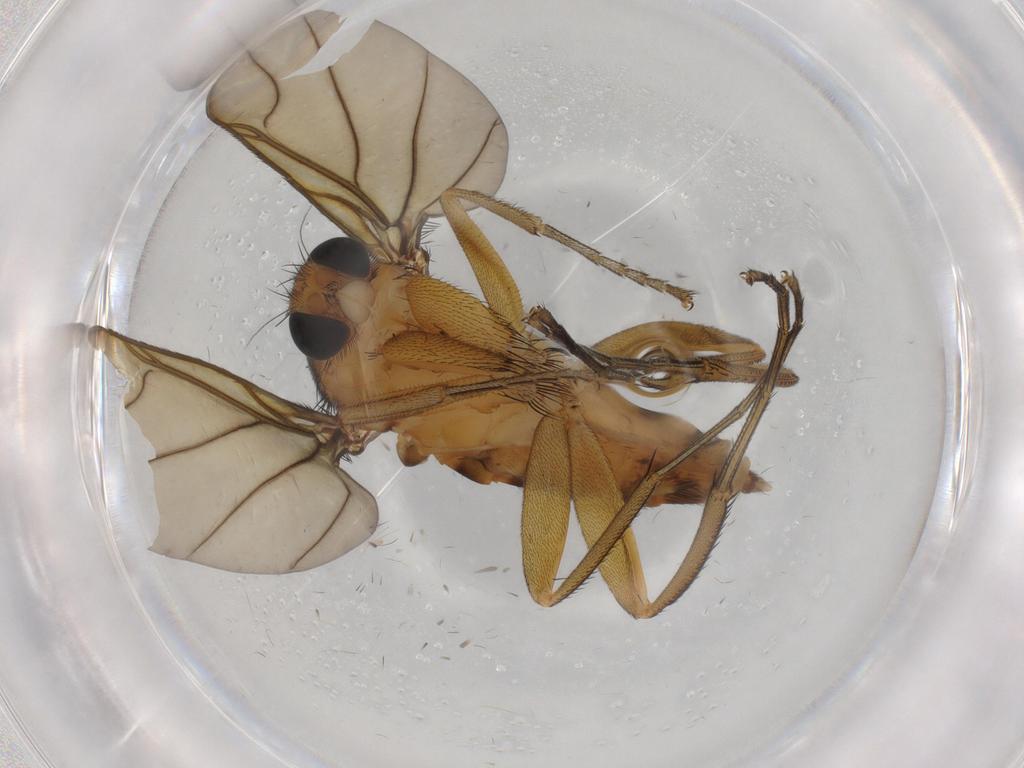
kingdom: Animalia
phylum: Arthropoda
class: Insecta
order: Diptera
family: Phoridae
